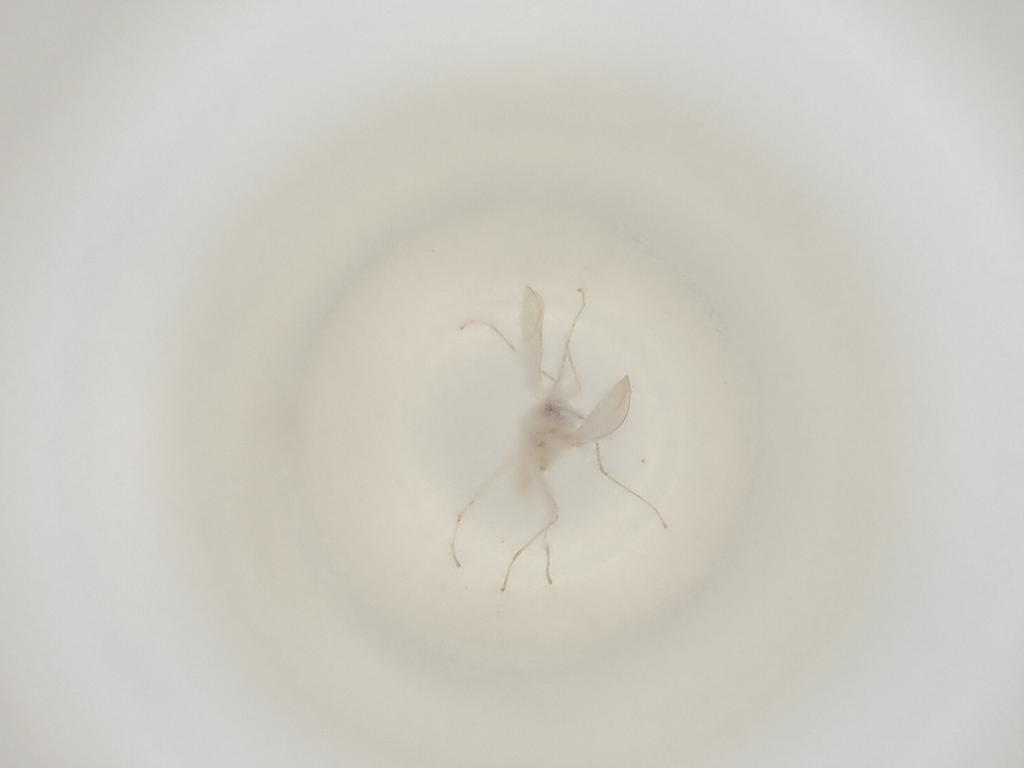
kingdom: Animalia
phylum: Arthropoda
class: Insecta
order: Diptera
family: Cecidomyiidae
